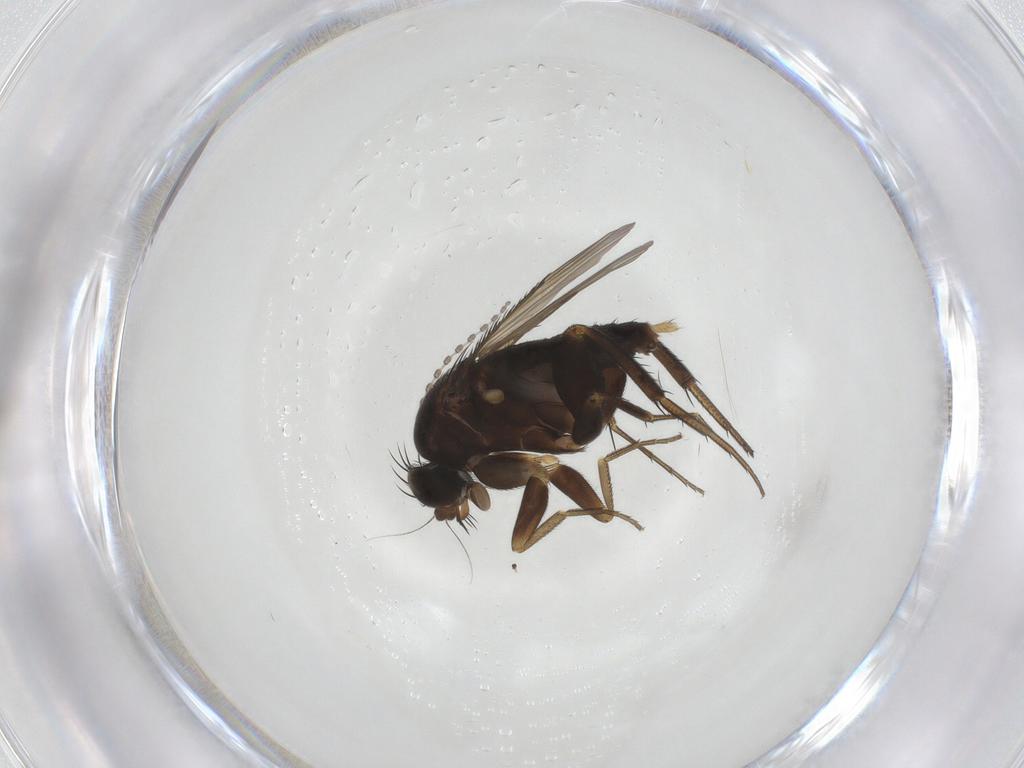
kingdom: Animalia
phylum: Arthropoda
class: Insecta
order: Diptera
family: Phoridae
